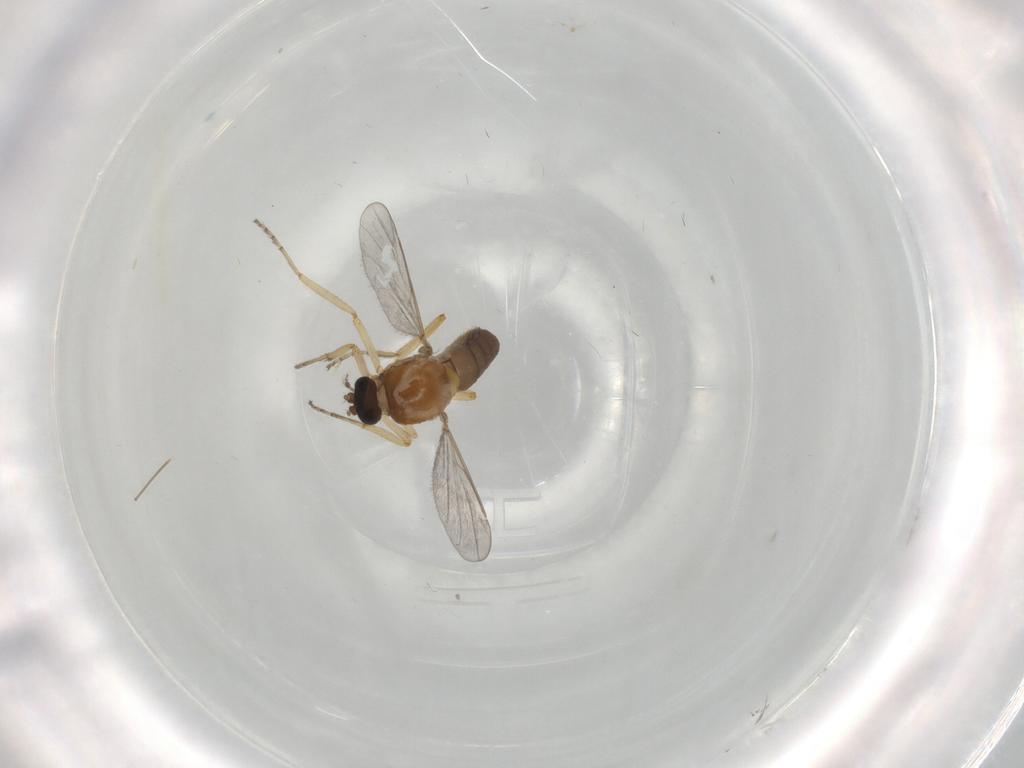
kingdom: Animalia
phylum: Arthropoda
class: Insecta
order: Diptera
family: Ceratopogonidae
